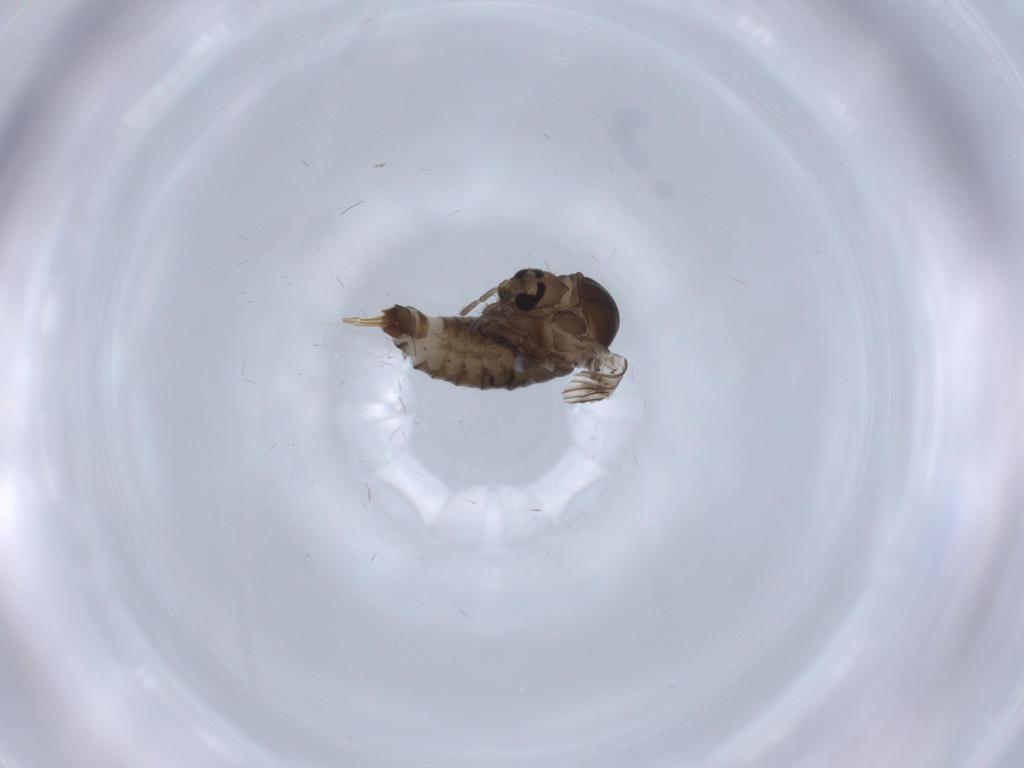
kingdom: Animalia
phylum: Arthropoda
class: Insecta
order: Diptera
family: Psychodidae
